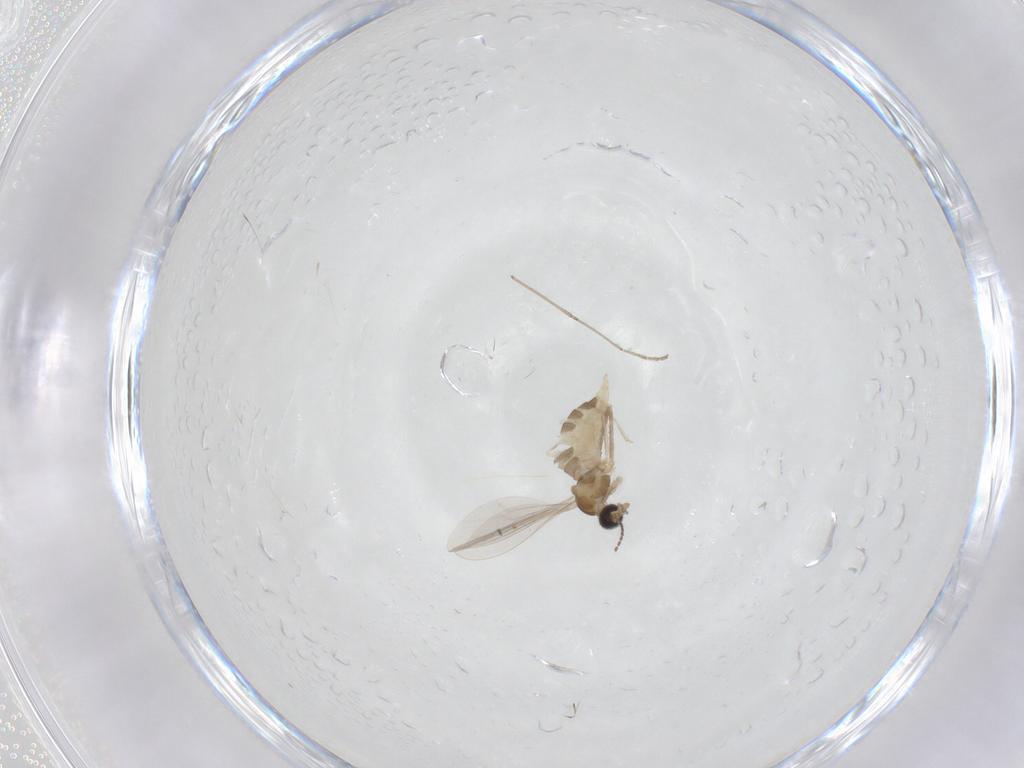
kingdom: Animalia
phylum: Arthropoda
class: Insecta
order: Diptera
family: Cecidomyiidae
